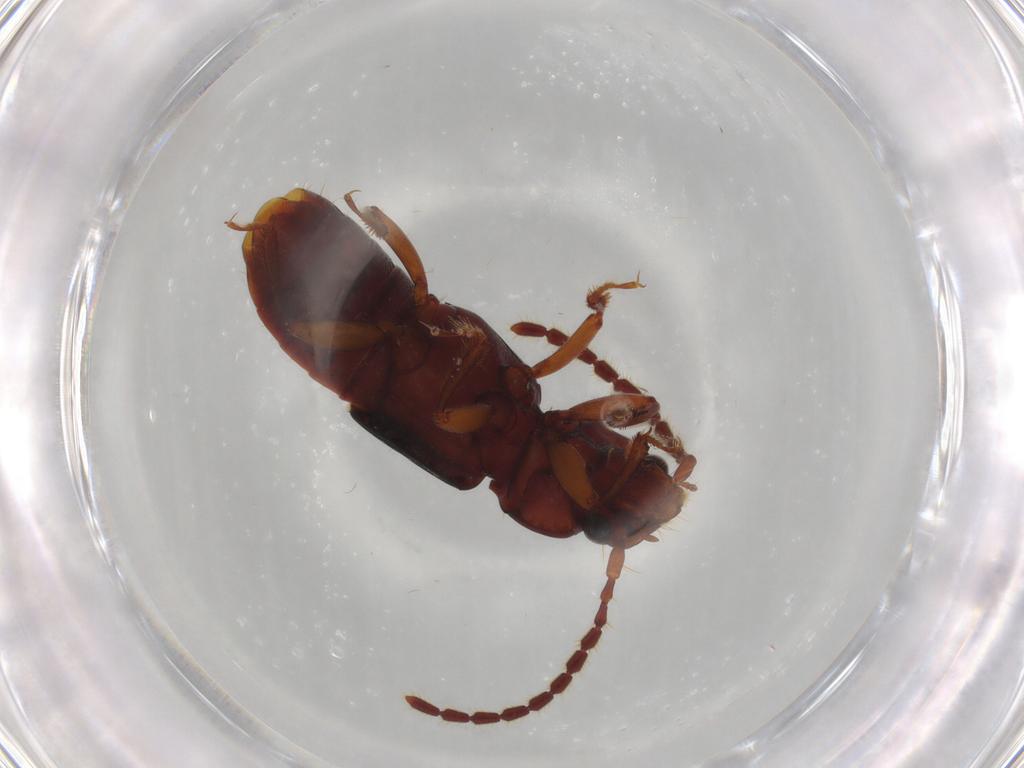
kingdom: Animalia
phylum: Arthropoda
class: Insecta
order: Coleoptera
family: Staphylinidae
